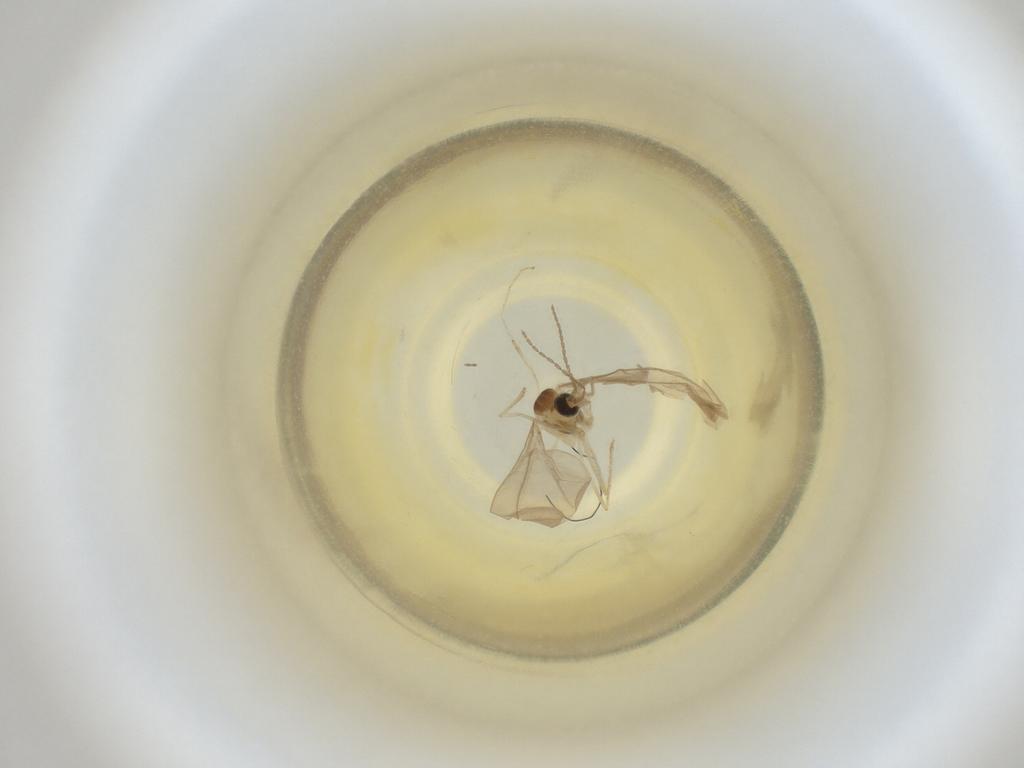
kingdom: Animalia
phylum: Arthropoda
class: Insecta
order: Diptera
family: Cecidomyiidae
